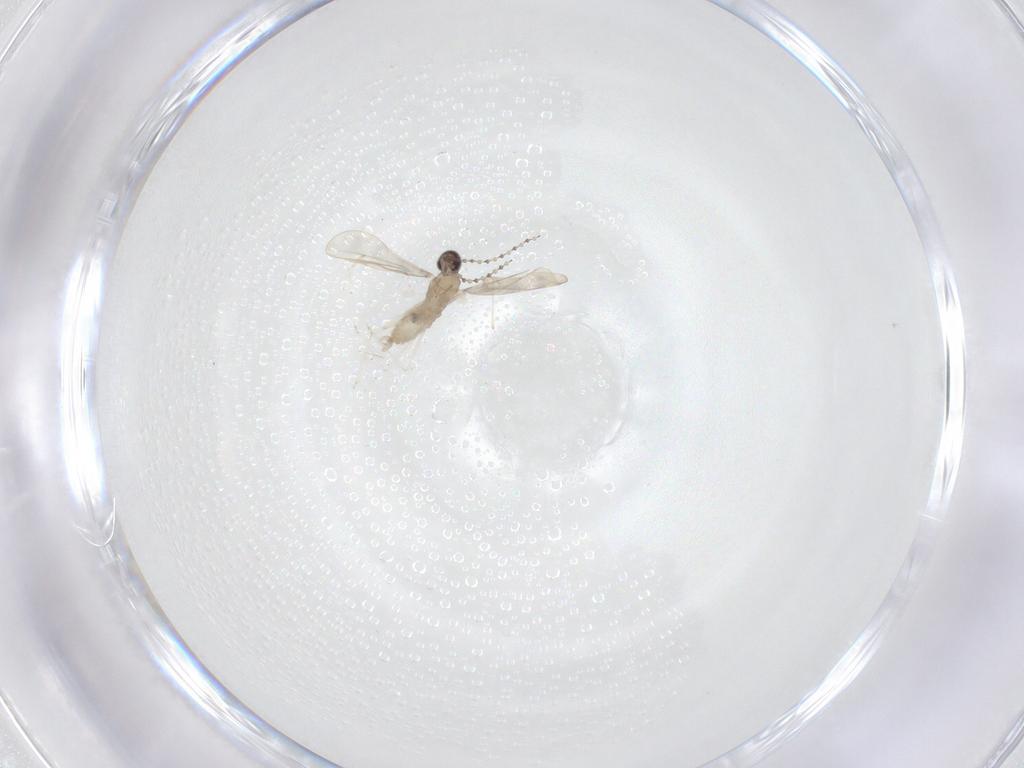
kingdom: Animalia
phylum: Arthropoda
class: Insecta
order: Diptera
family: Cecidomyiidae
